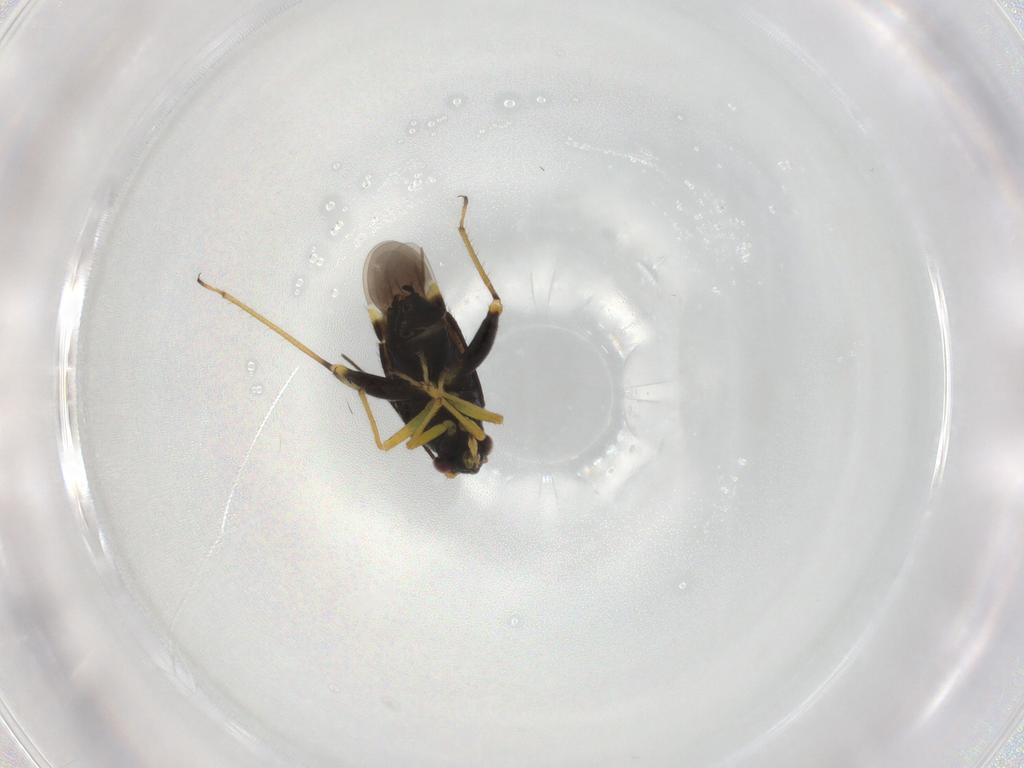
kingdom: Animalia
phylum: Arthropoda
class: Insecta
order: Hemiptera
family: Miridae
